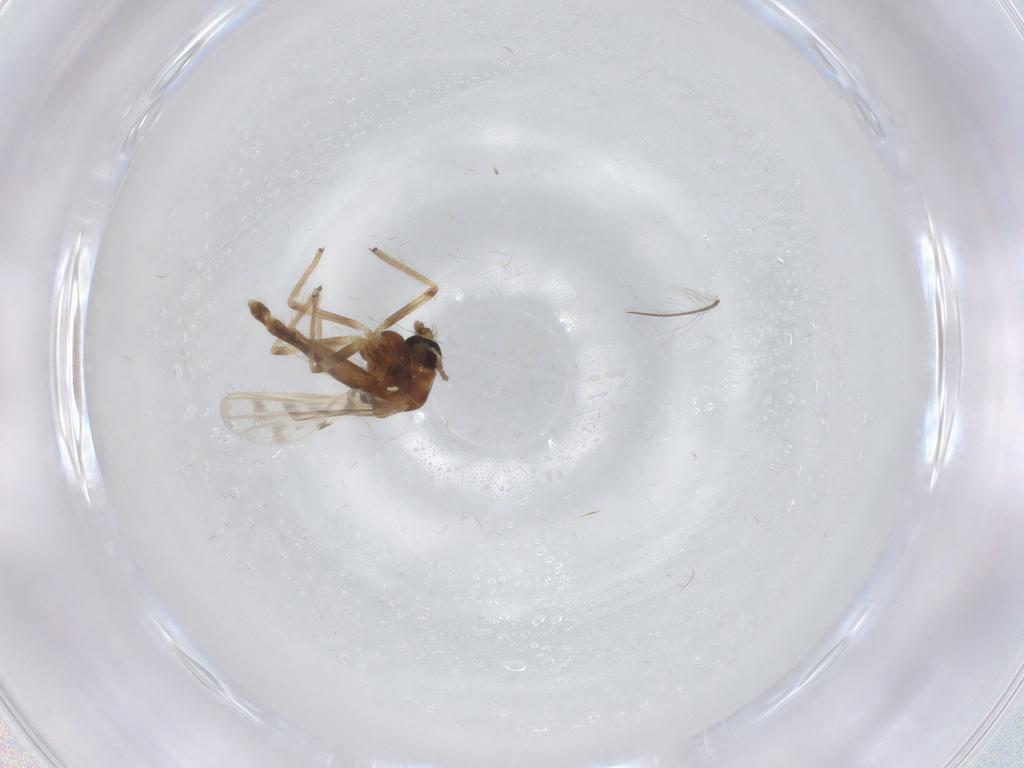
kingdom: Animalia
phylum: Arthropoda
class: Insecta
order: Diptera
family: Chironomidae
